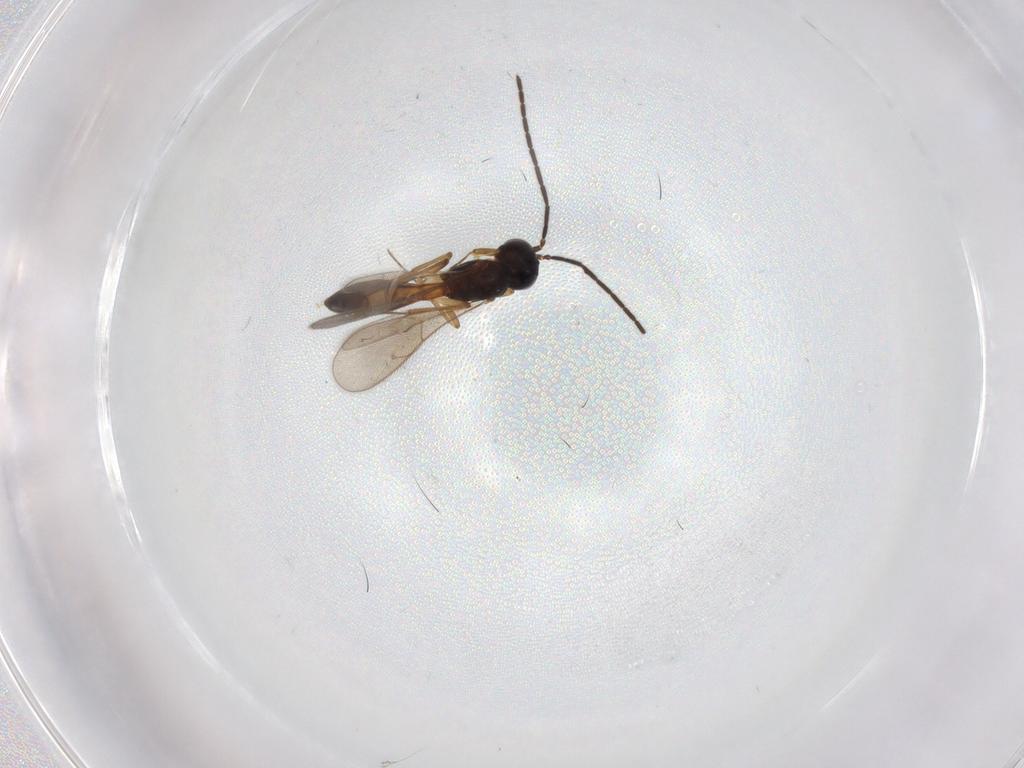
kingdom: Animalia
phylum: Arthropoda
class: Insecta
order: Hymenoptera
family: Scelionidae
